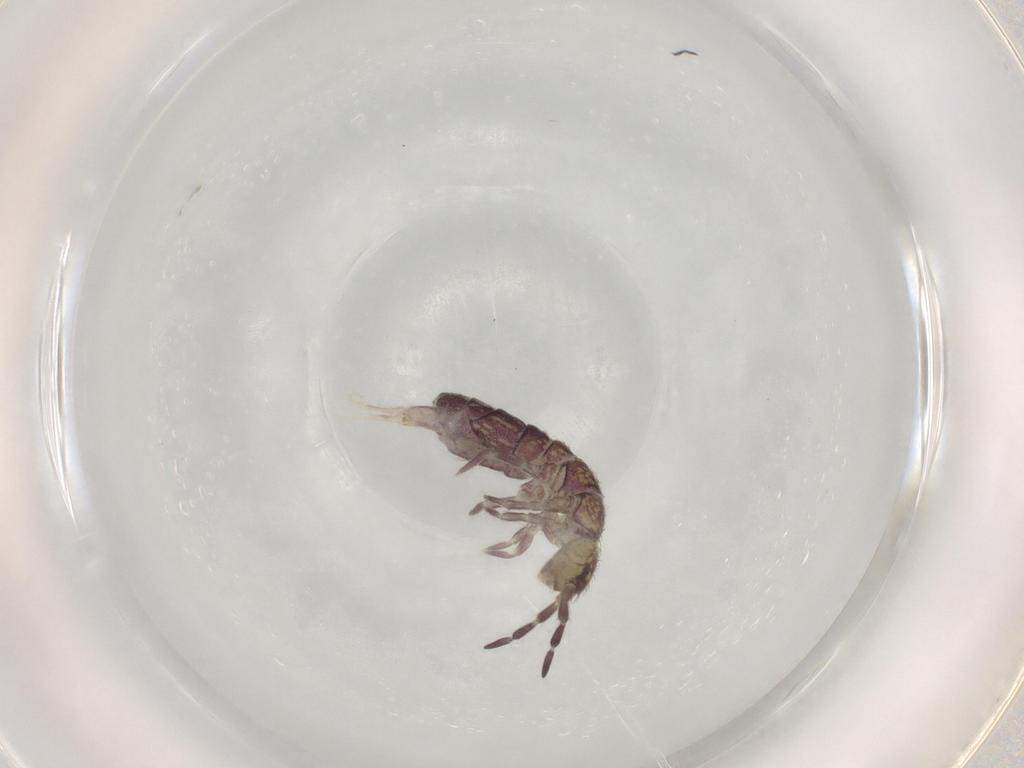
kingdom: Animalia
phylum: Arthropoda
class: Collembola
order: Entomobryomorpha
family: Isotomidae
